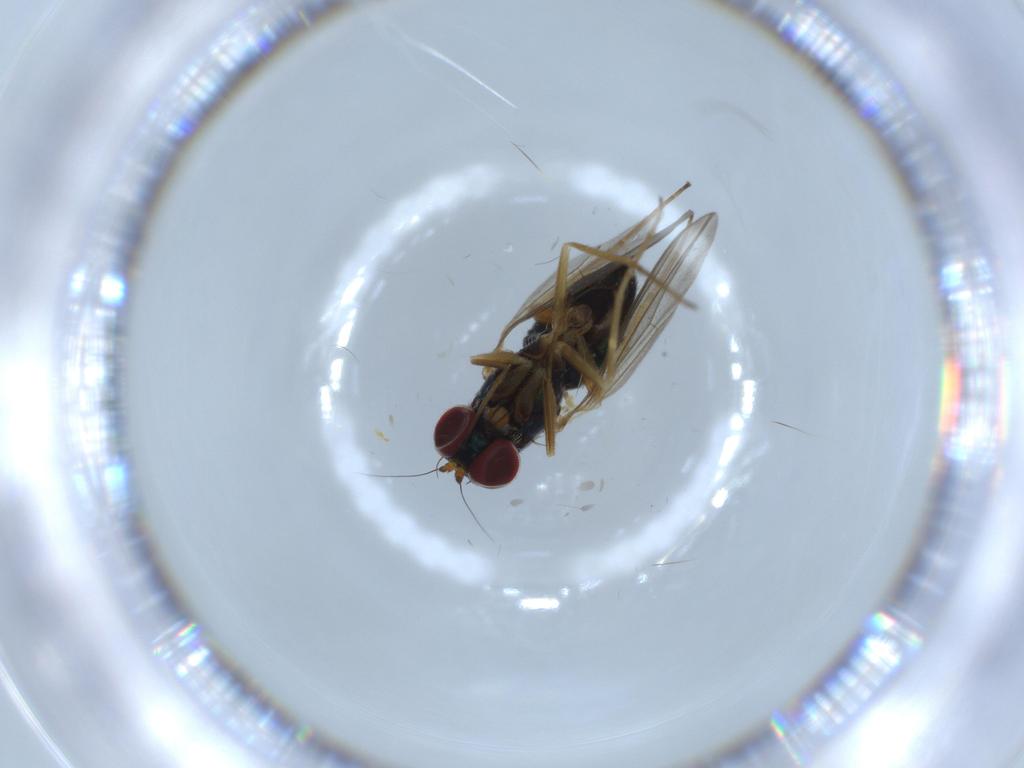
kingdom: Animalia
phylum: Arthropoda
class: Insecta
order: Diptera
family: Dolichopodidae
